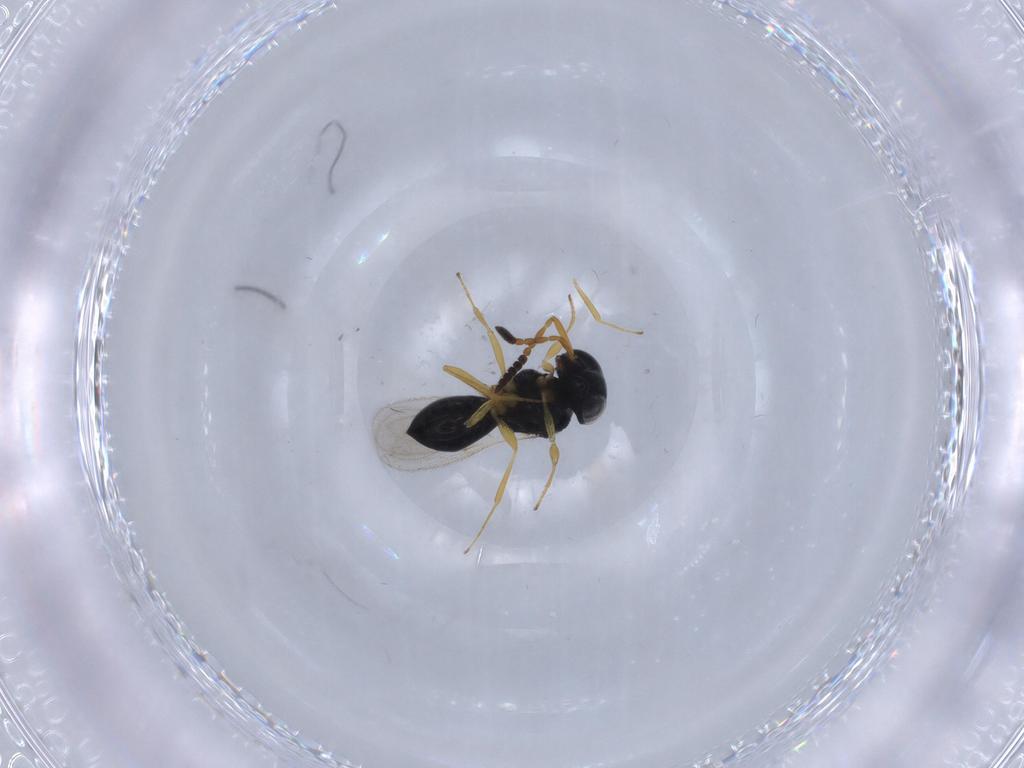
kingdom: Animalia
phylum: Arthropoda
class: Insecta
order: Hymenoptera
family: Scelionidae
